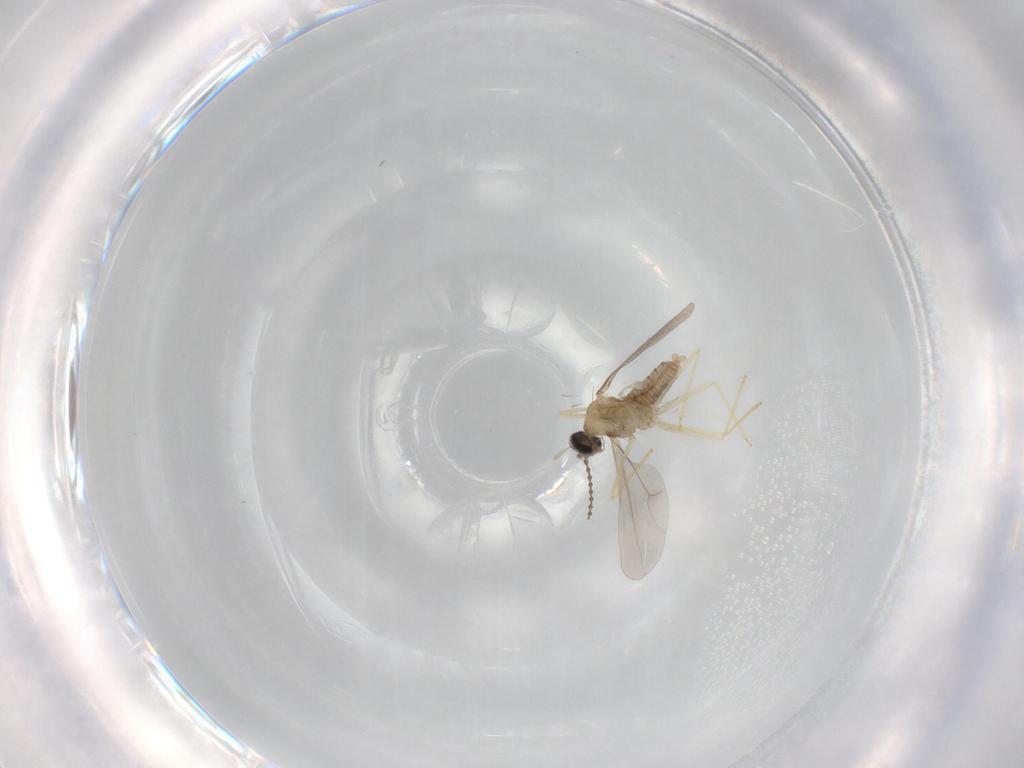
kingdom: Animalia
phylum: Arthropoda
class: Insecta
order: Diptera
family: Cecidomyiidae
